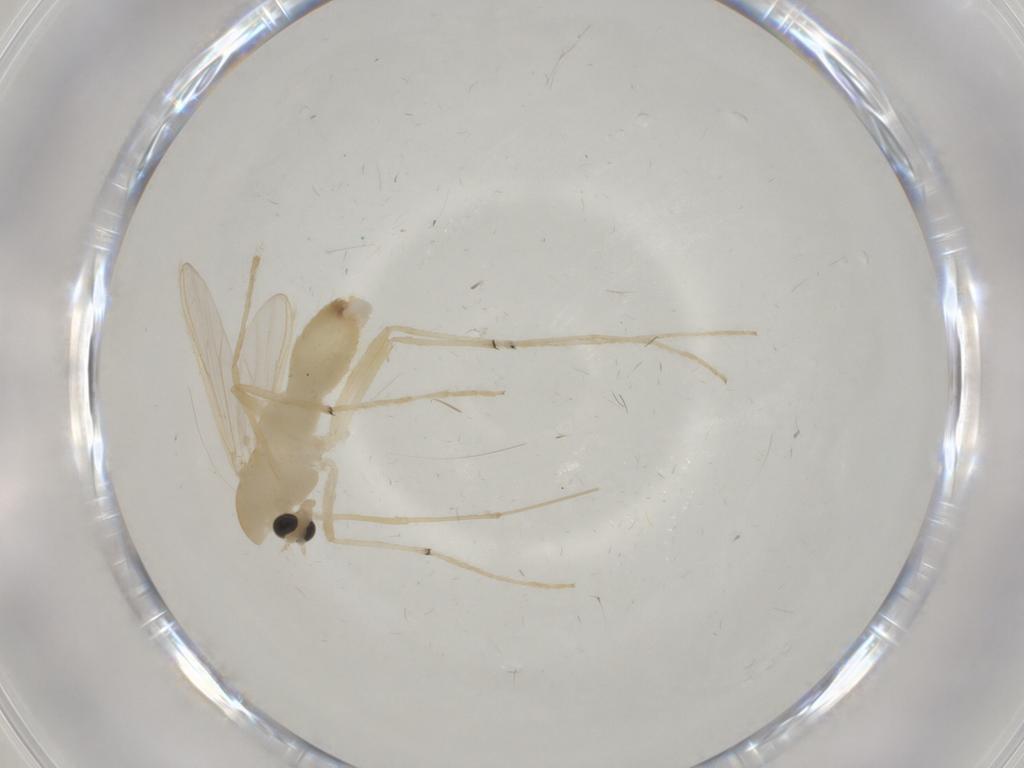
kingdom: Animalia
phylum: Arthropoda
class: Insecta
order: Diptera
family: Chironomidae
